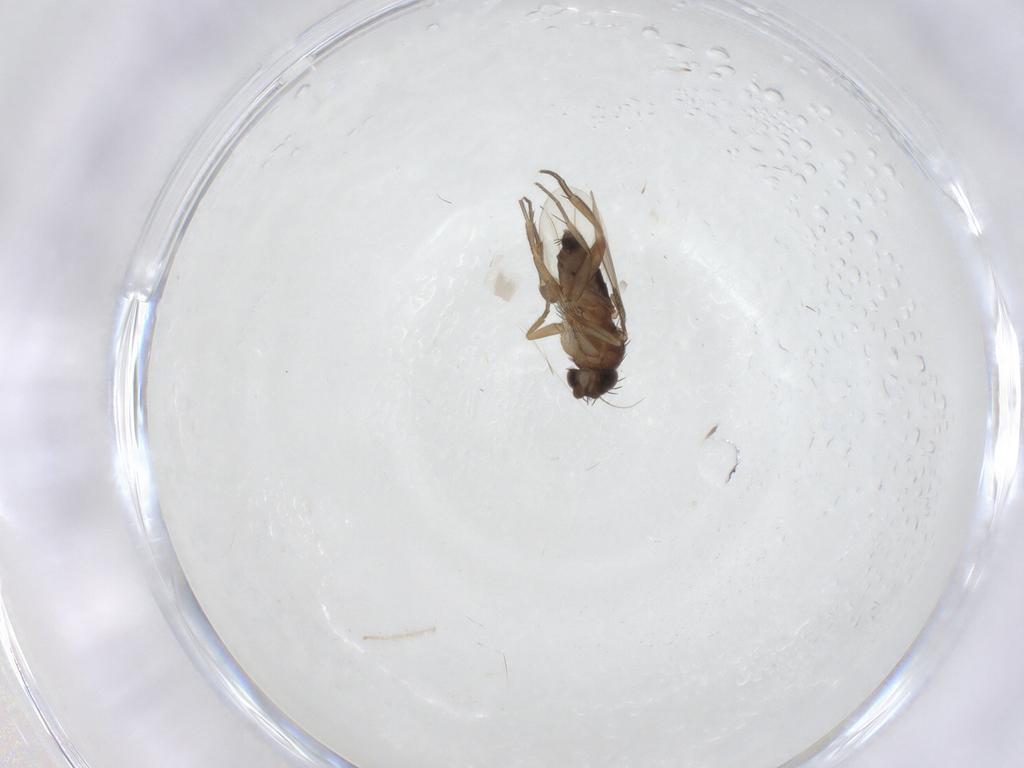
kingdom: Animalia
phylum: Arthropoda
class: Insecta
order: Diptera
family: Phoridae
